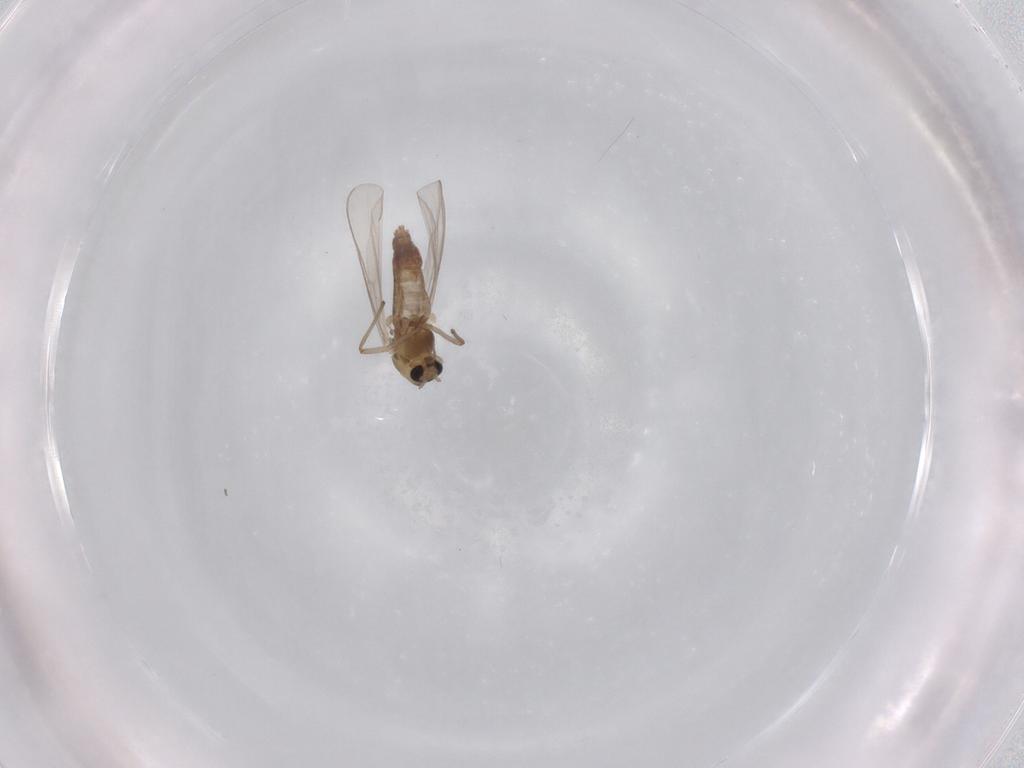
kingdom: Animalia
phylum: Arthropoda
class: Insecta
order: Diptera
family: Chironomidae
